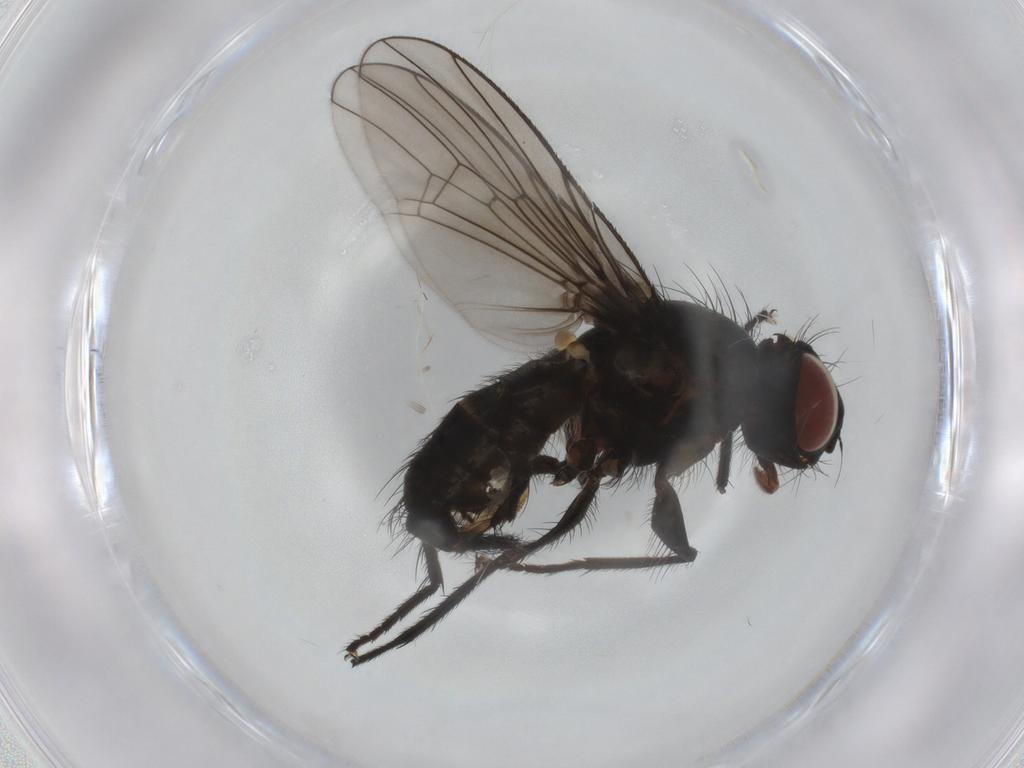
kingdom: Animalia
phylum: Arthropoda
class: Insecta
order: Diptera
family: Anthomyiidae
